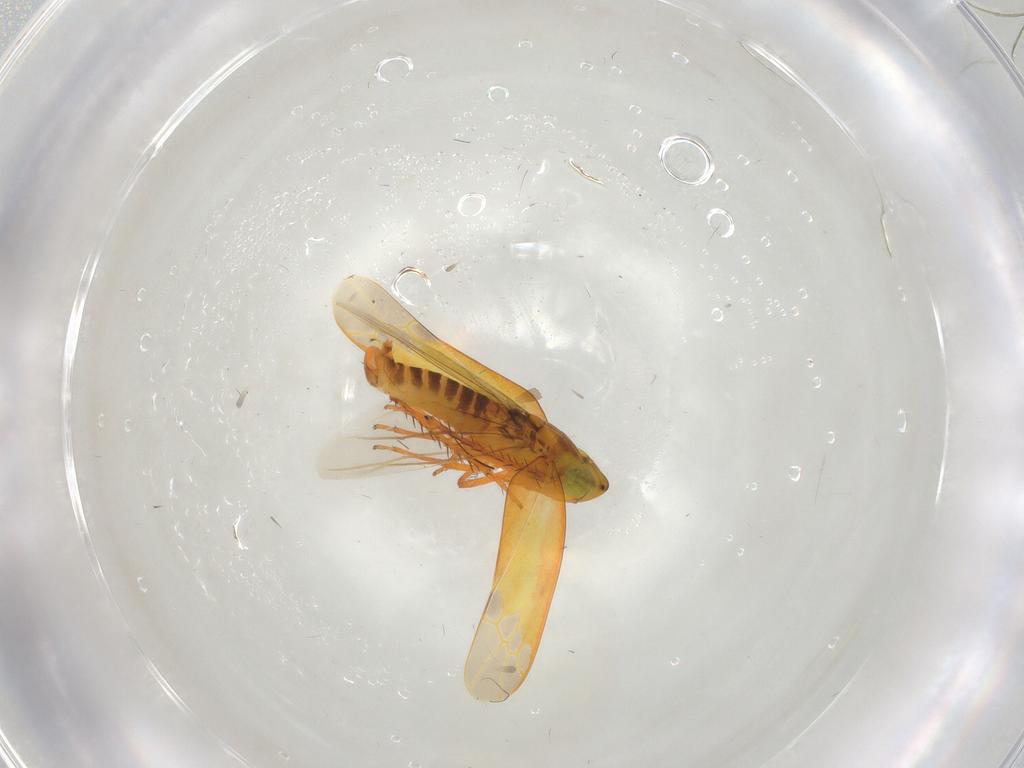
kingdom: Animalia
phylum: Arthropoda
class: Insecta
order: Hemiptera
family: Cicadellidae
